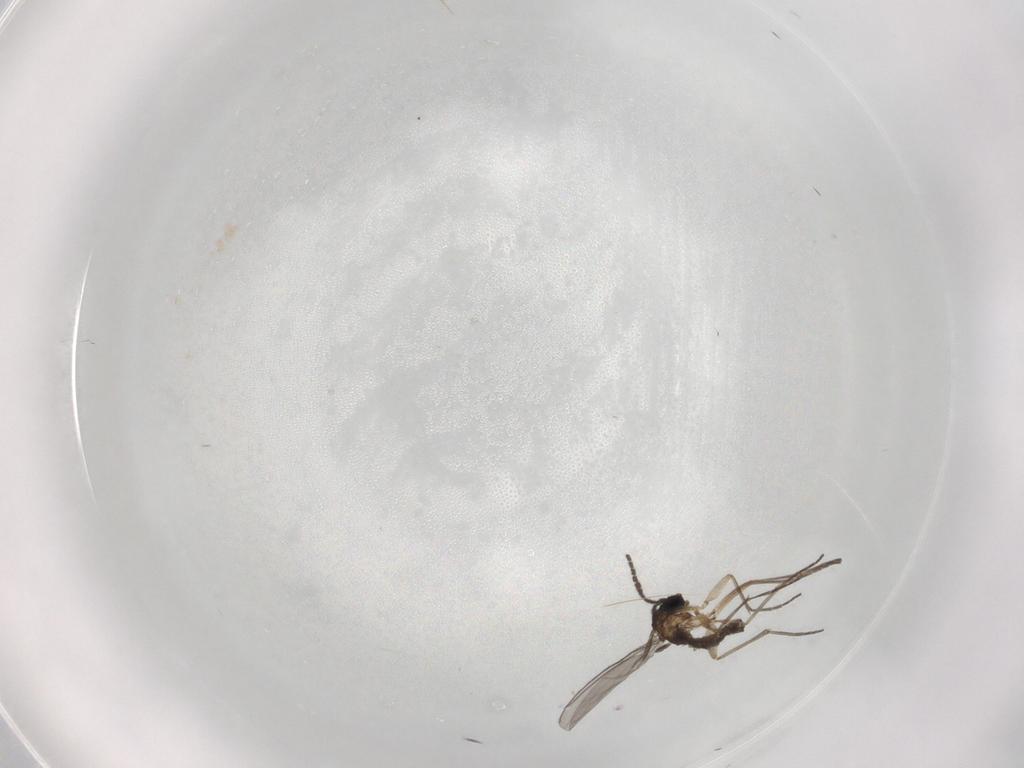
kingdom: Animalia
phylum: Arthropoda
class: Insecta
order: Diptera
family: Sciaridae
